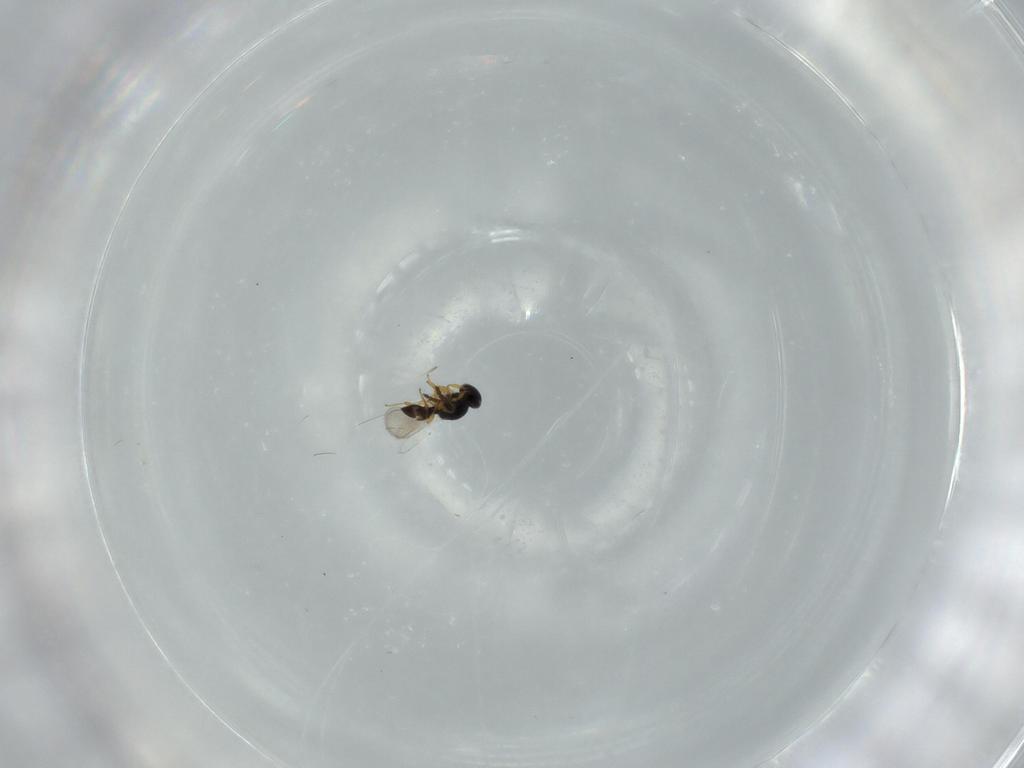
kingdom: Animalia
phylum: Arthropoda
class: Insecta
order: Hymenoptera
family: Platygastridae
